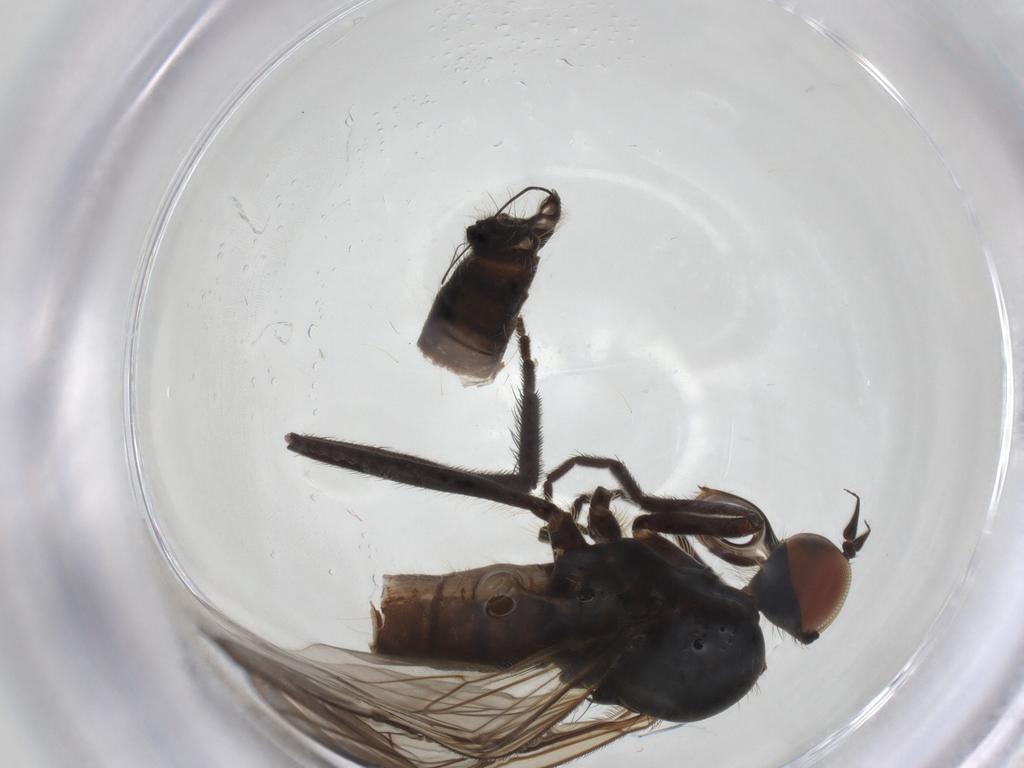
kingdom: Animalia
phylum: Arthropoda
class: Insecta
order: Diptera
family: Empididae
